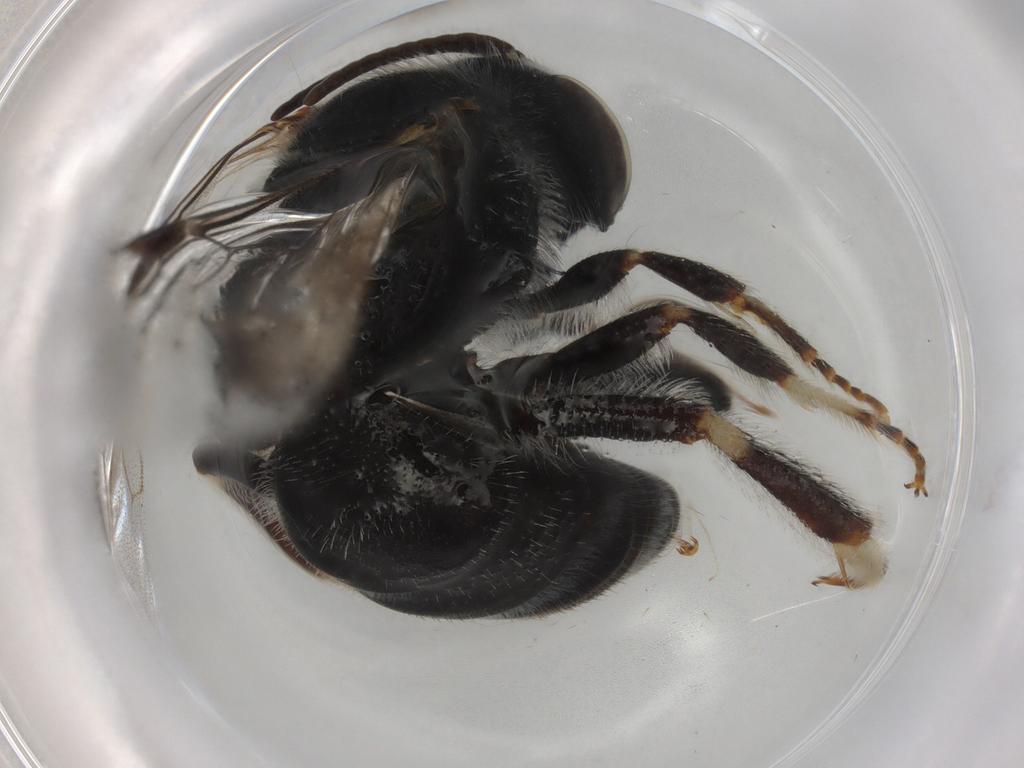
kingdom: Animalia
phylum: Arthropoda
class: Insecta
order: Hymenoptera
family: Halictidae
